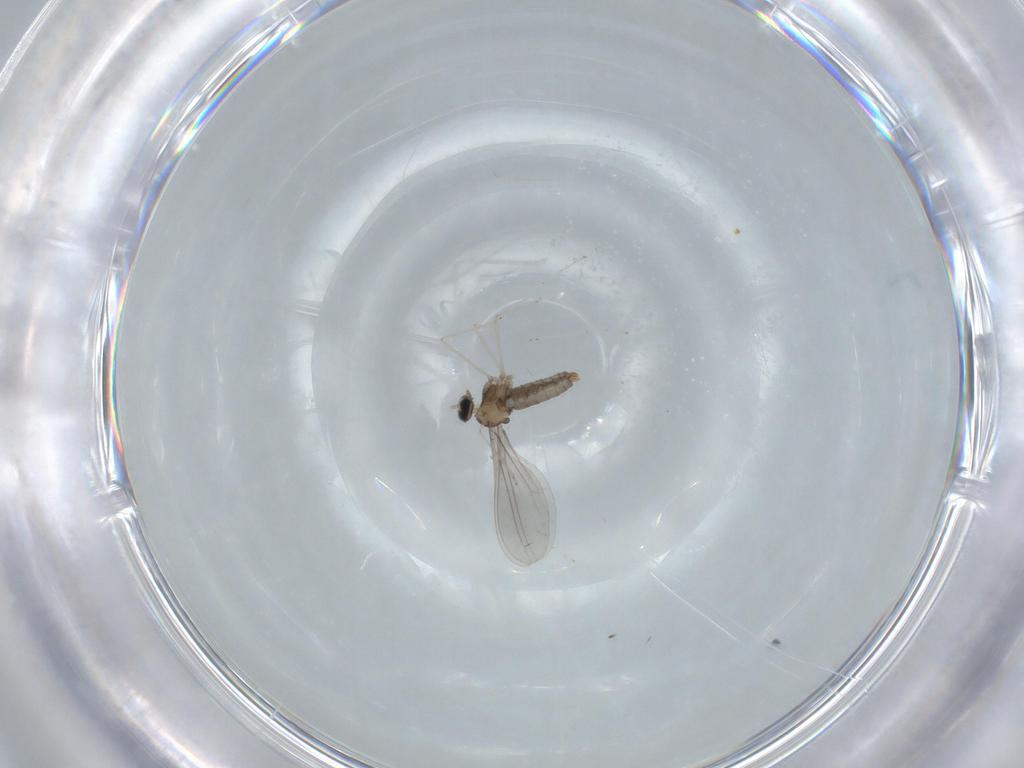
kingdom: Animalia
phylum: Arthropoda
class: Insecta
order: Diptera
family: Cecidomyiidae
